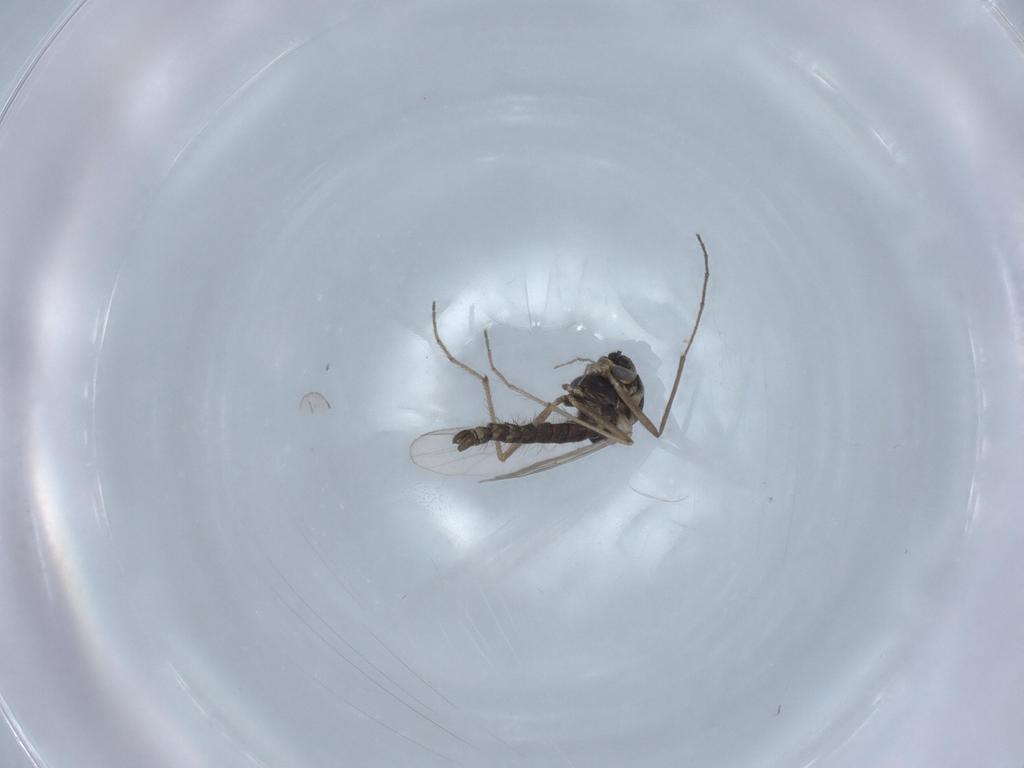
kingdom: Animalia
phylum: Arthropoda
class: Insecta
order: Diptera
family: Chironomidae
